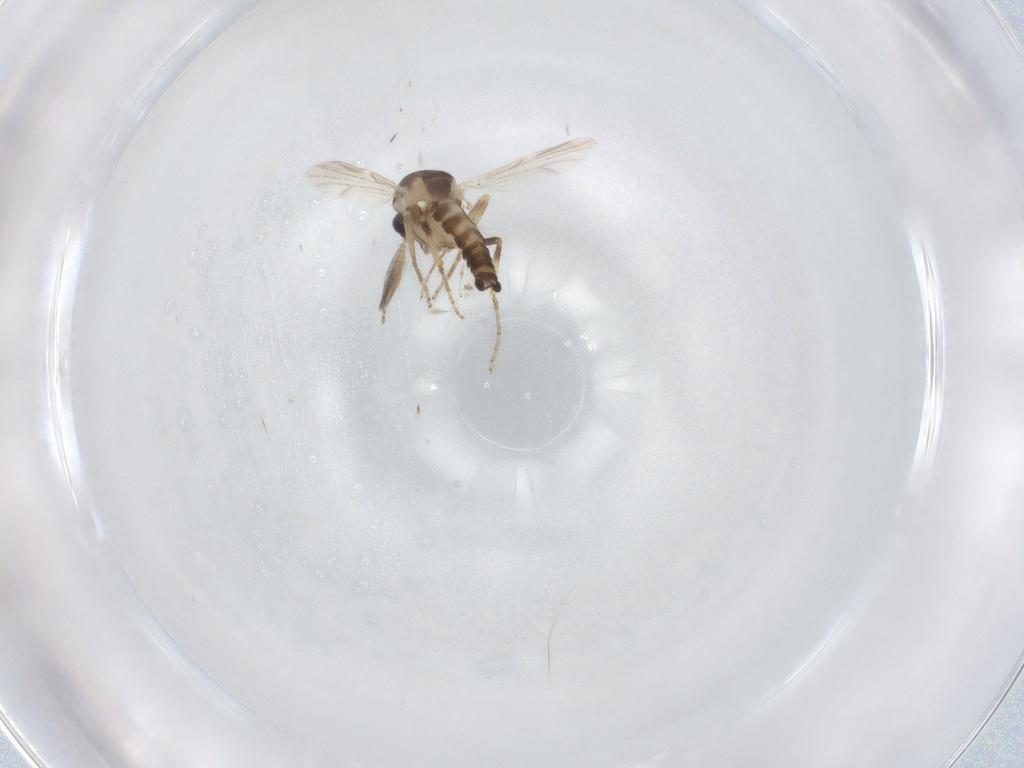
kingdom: Animalia
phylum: Arthropoda
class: Insecta
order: Diptera
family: Ceratopogonidae
